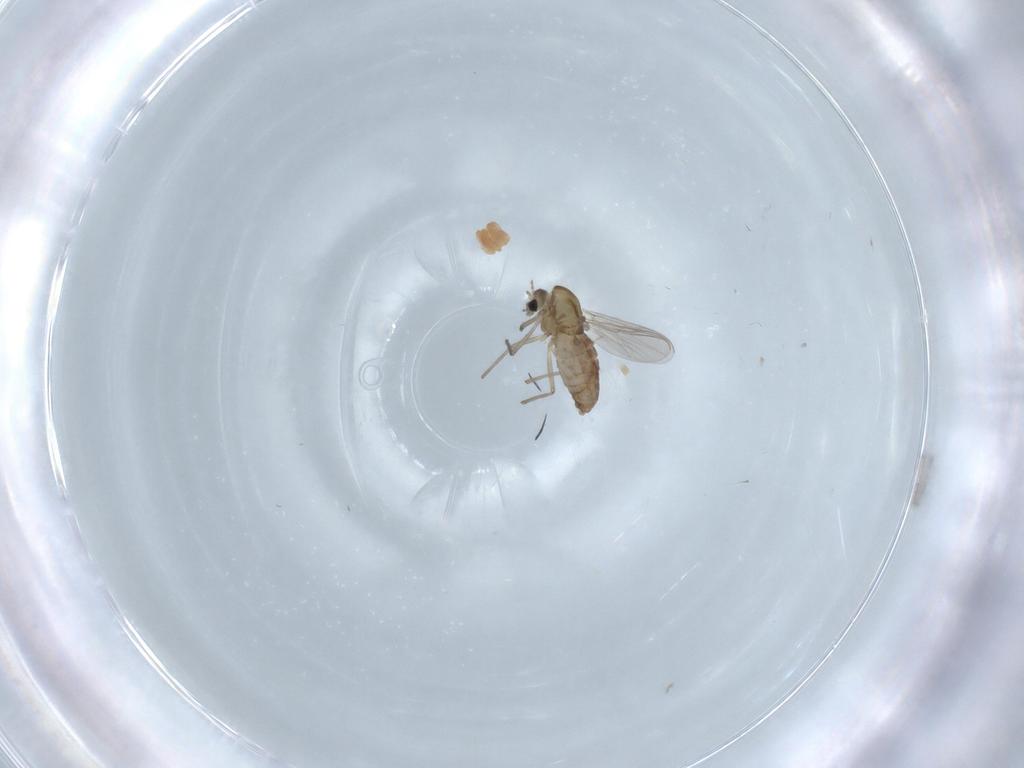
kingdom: Animalia
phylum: Arthropoda
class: Insecta
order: Diptera
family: Chironomidae
